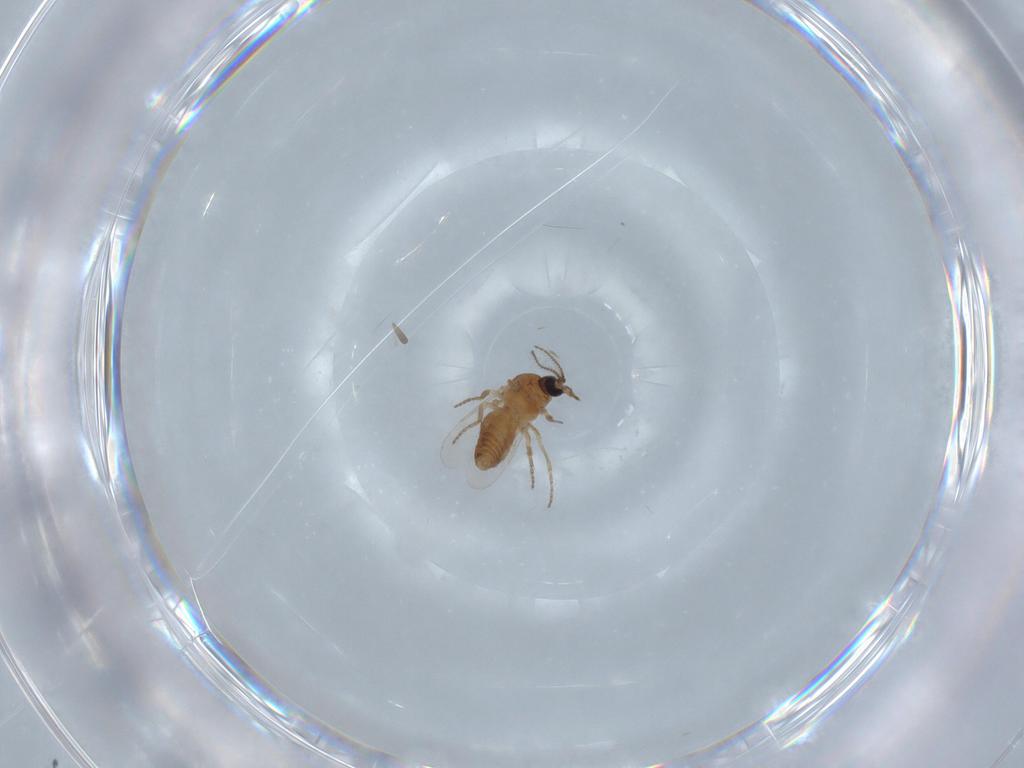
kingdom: Animalia
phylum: Arthropoda
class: Insecta
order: Diptera
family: Ceratopogonidae
